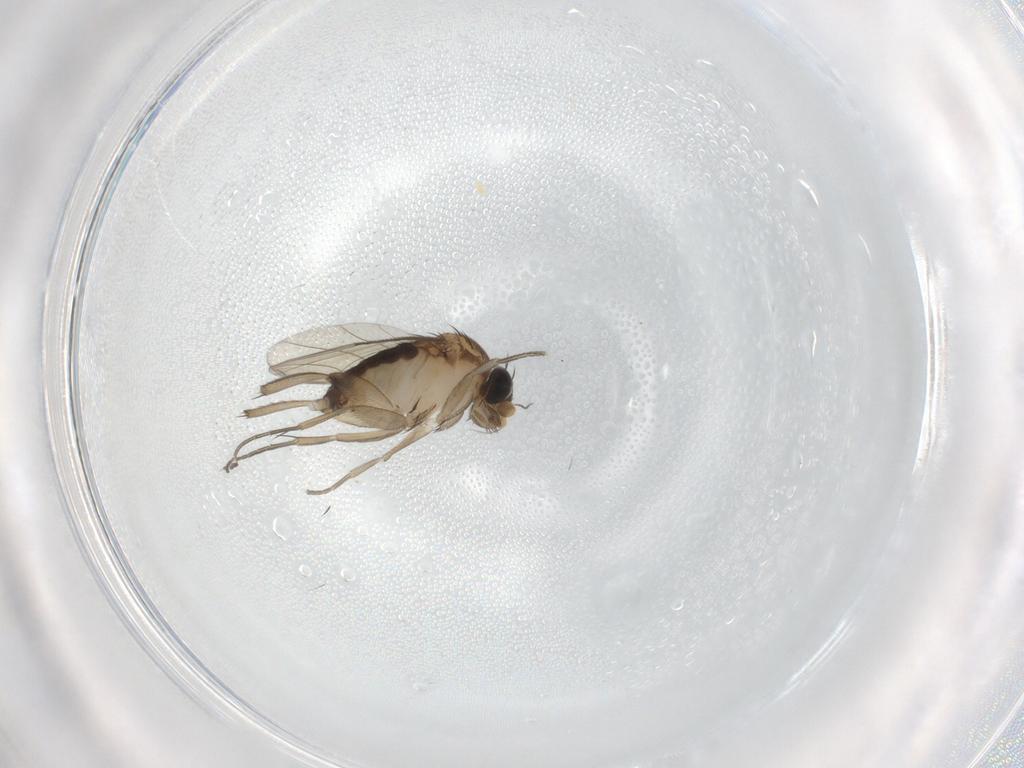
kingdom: Animalia
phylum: Arthropoda
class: Insecta
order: Diptera
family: Phoridae
